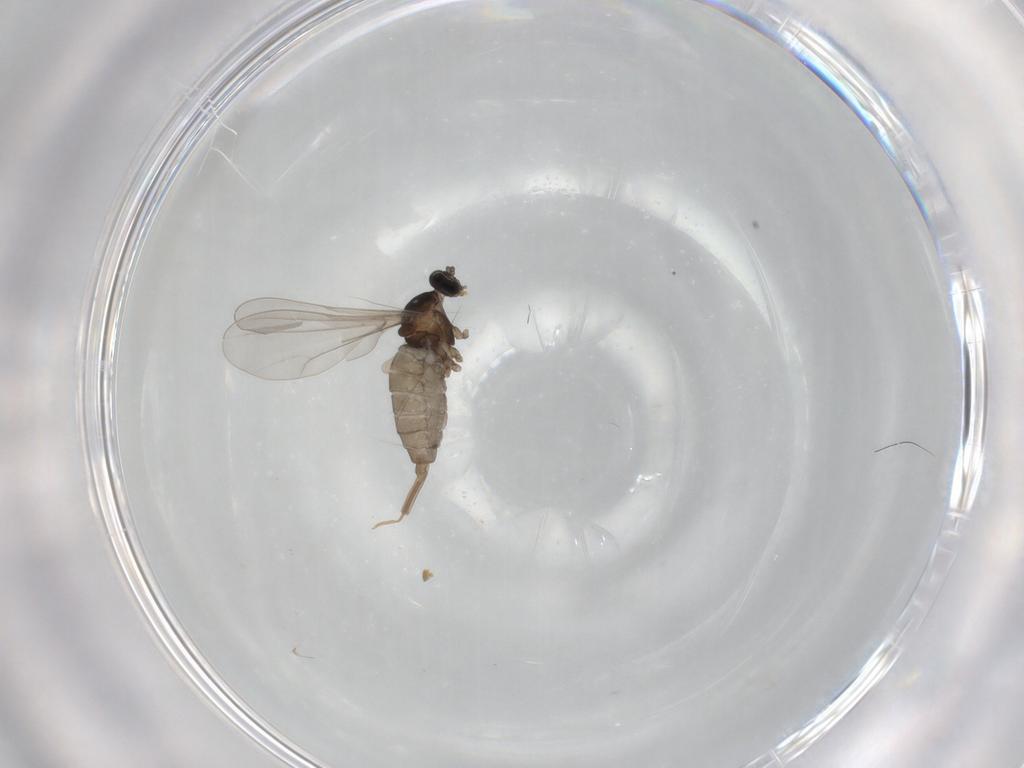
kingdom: Animalia
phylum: Arthropoda
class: Insecta
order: Diptera
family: Cecidomyiidae
